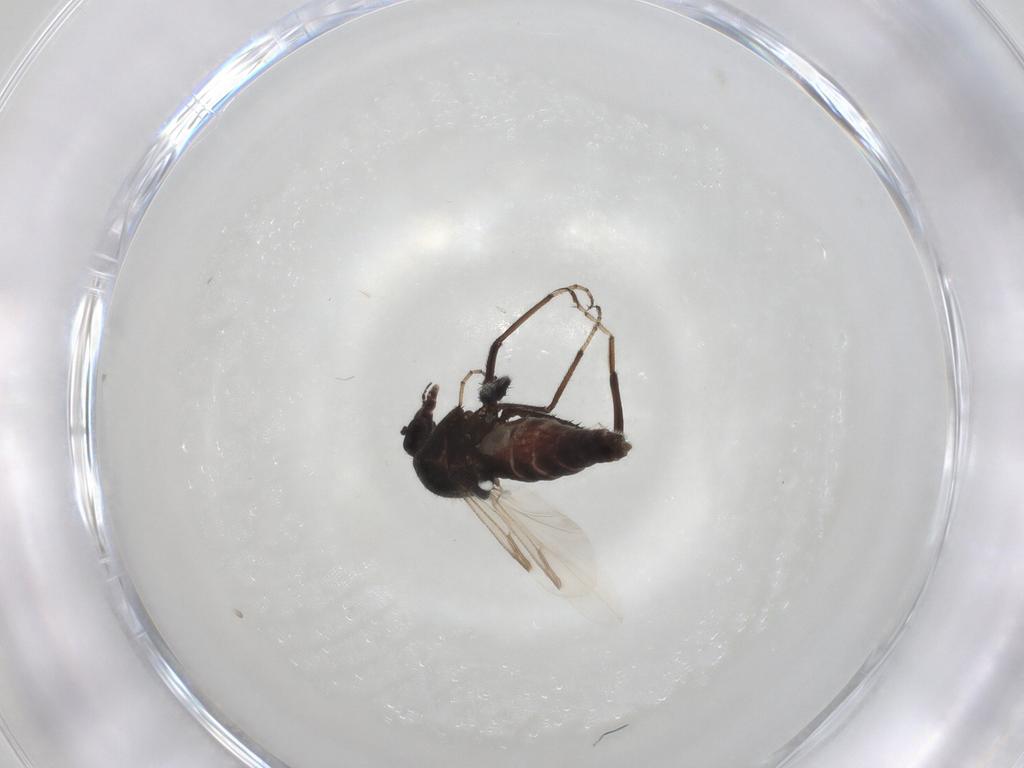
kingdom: Animalia
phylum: Arthropoda
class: Insecta
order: Diptera
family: Ceratopogonidae
